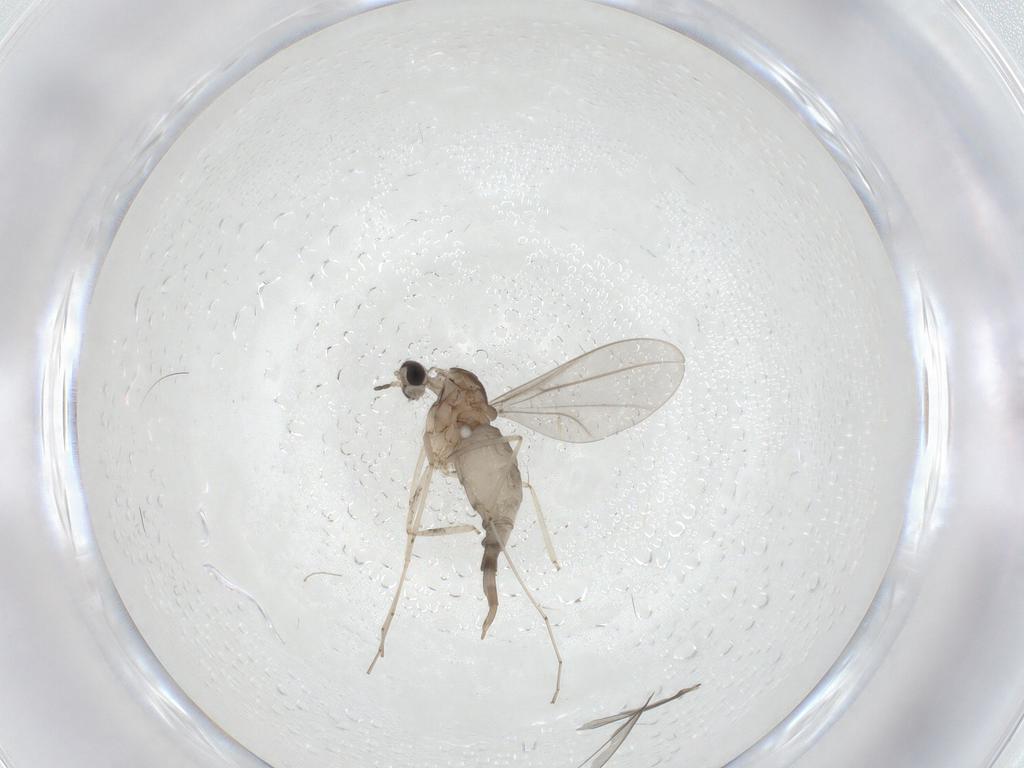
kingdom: Animalia
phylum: Arthropoda
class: Insecta
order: Diptera
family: Cecidomyiidae
